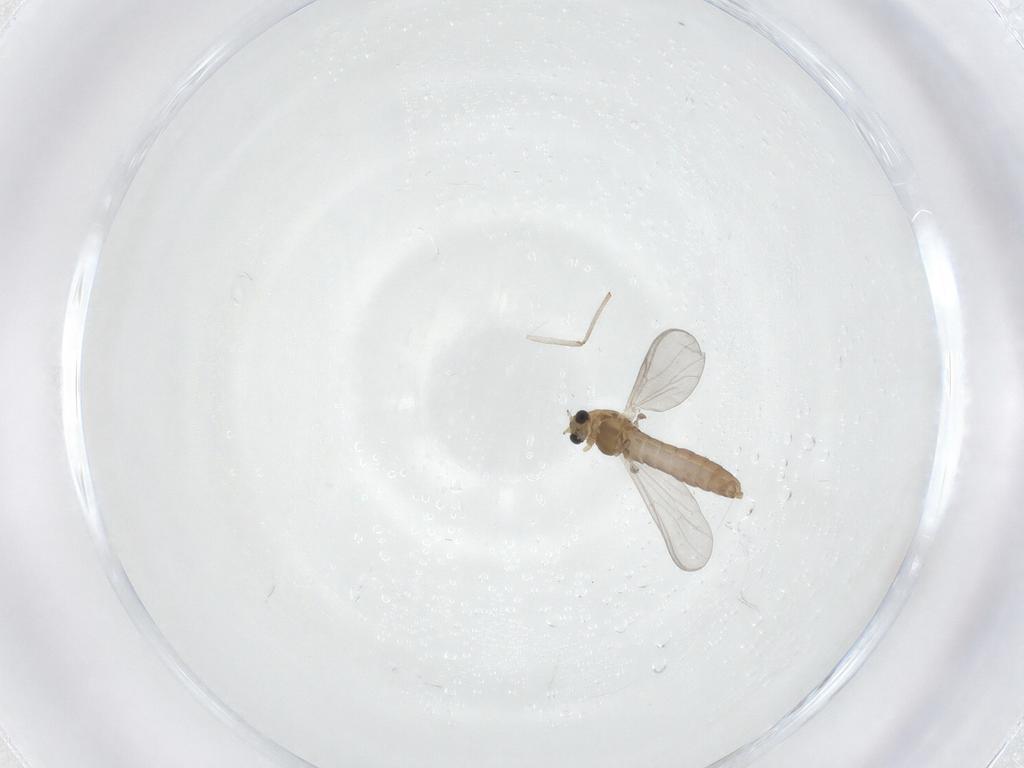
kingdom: Animalia
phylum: Arthropoda
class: Insecta
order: Diptera
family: Chironomidae
